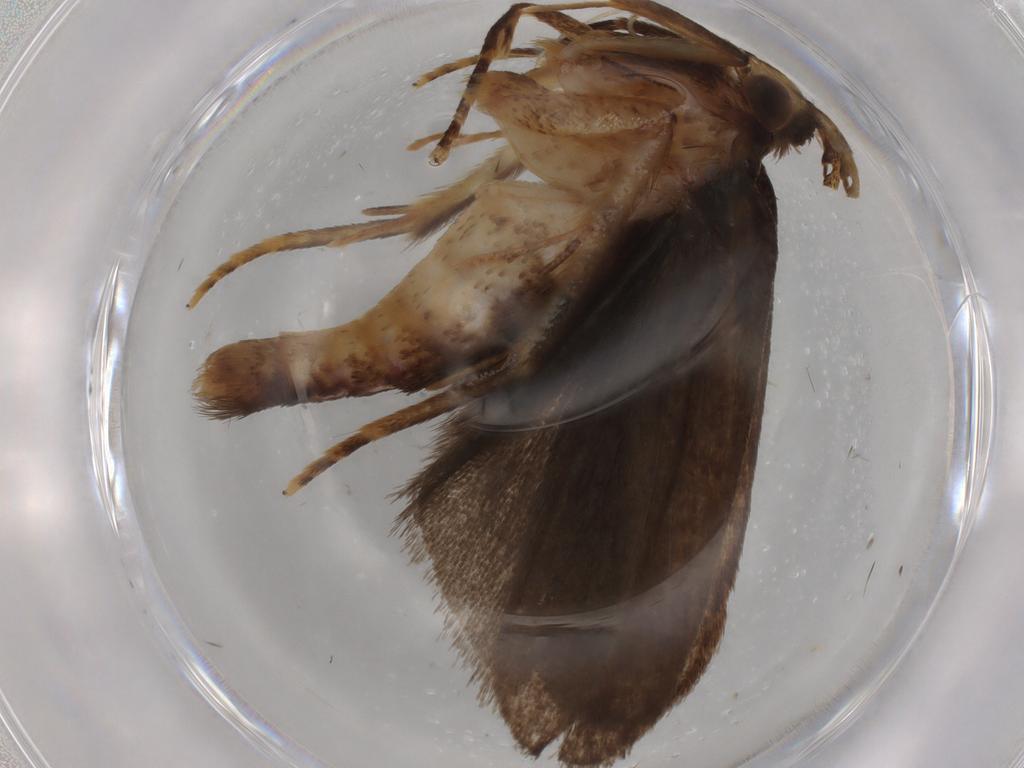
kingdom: Animalia
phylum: Arthropoda
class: Insecta
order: Lepidoptera
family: Autostichidae
